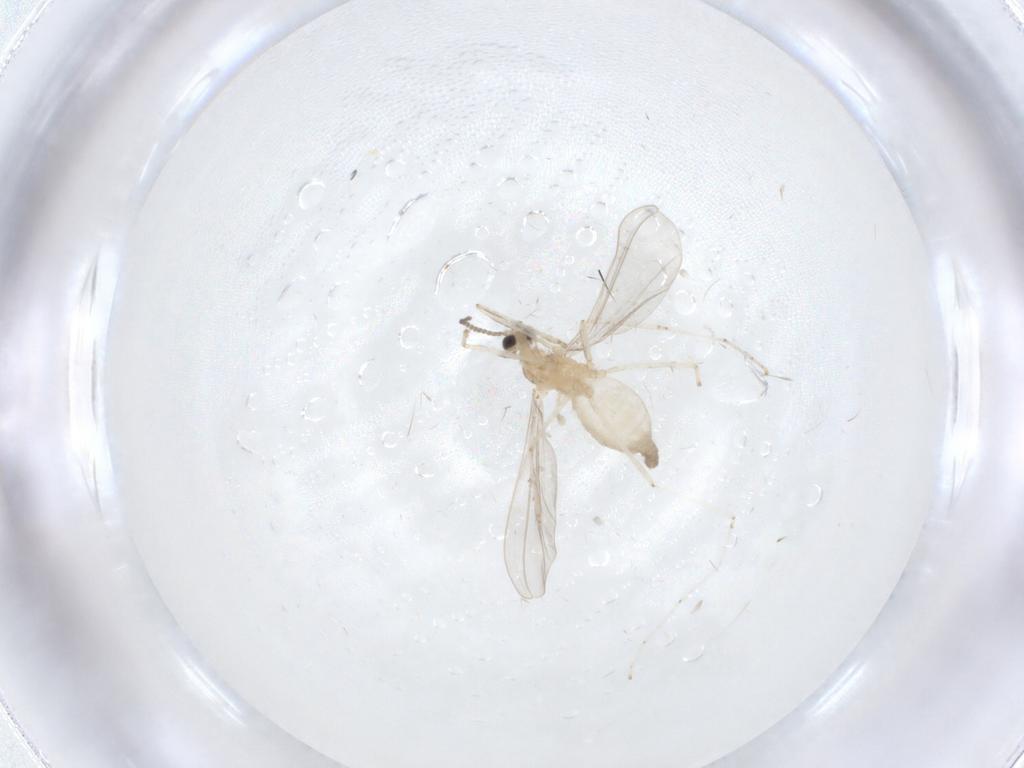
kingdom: Animalia
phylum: Arthropoda
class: Insecta
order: Diptera
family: Cecidomyiidae
